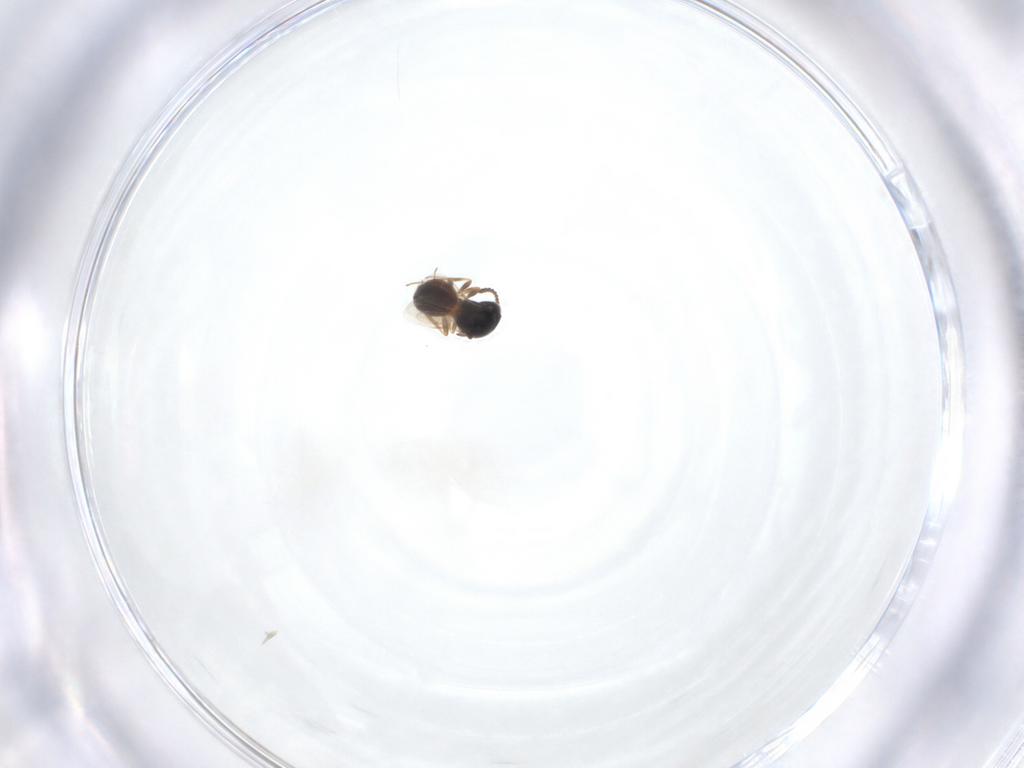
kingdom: Animalia
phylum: Arthropoda
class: Insecta
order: Hymenoptera
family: Scelionidae
